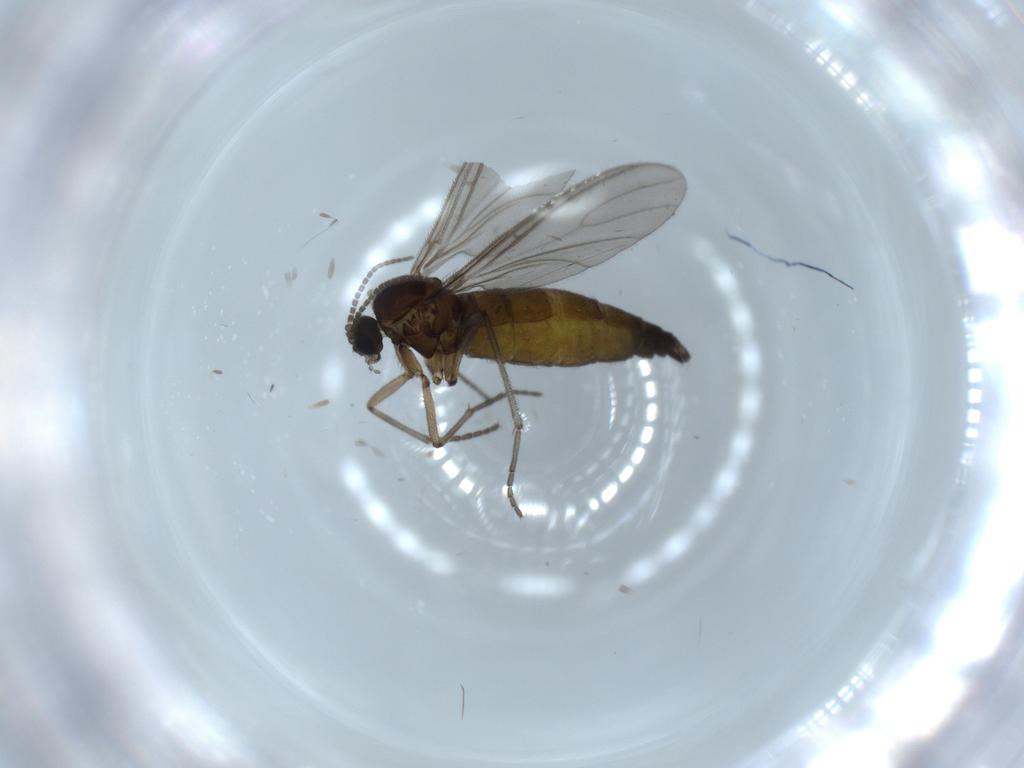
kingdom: Animalia
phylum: Arthropoda
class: Insecta
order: Diptera
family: Sciaridae
